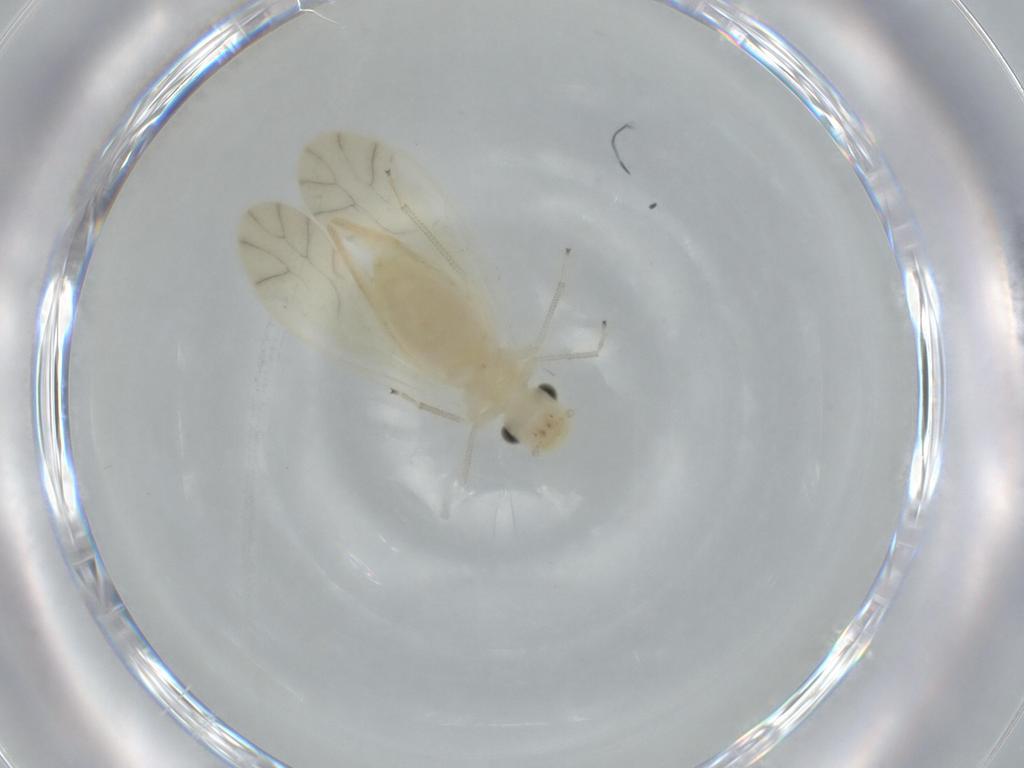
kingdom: Animalia
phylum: Arthropoda
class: Insecta
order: Psocodea
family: Caeciliusidae
